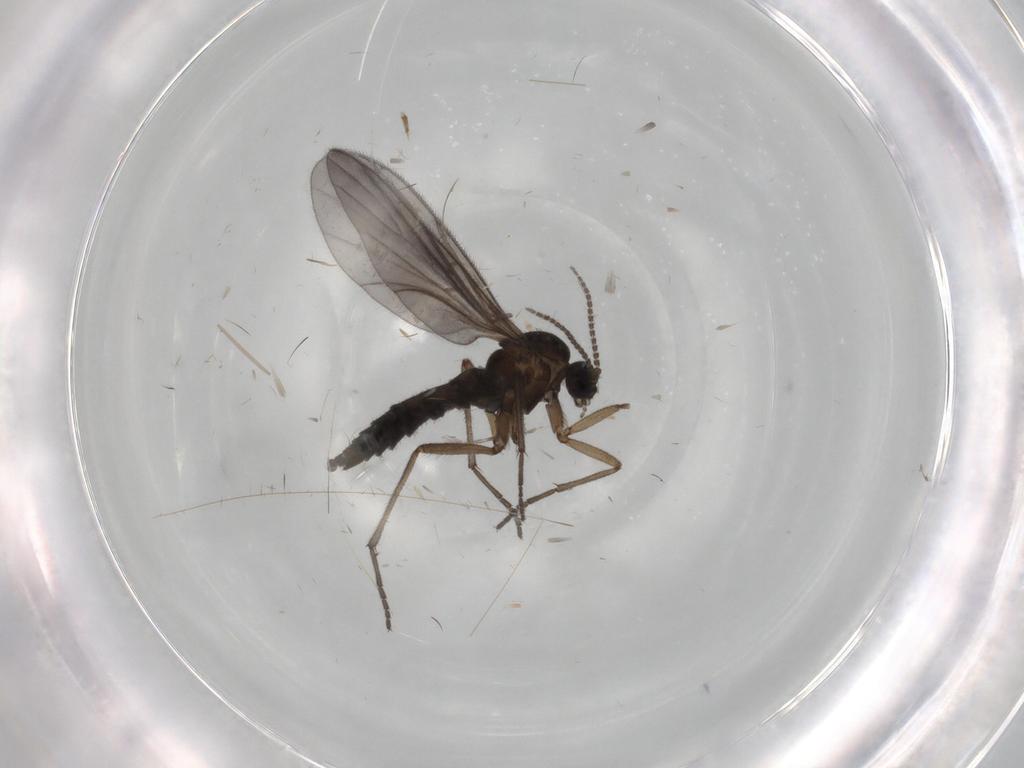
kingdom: Animalia
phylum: Arthropoda
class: Insecta
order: Diptera
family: Sciaridae
